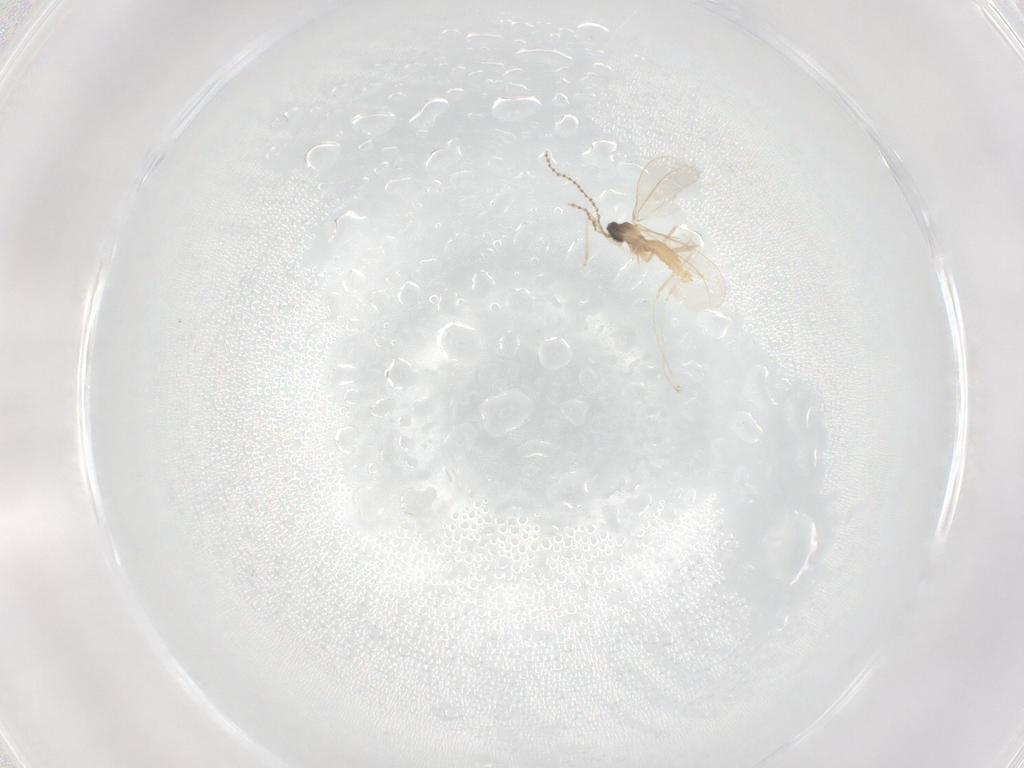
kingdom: Animalia
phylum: Arthropoda
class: Insecta
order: Diptera
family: Cecidomyiidae
